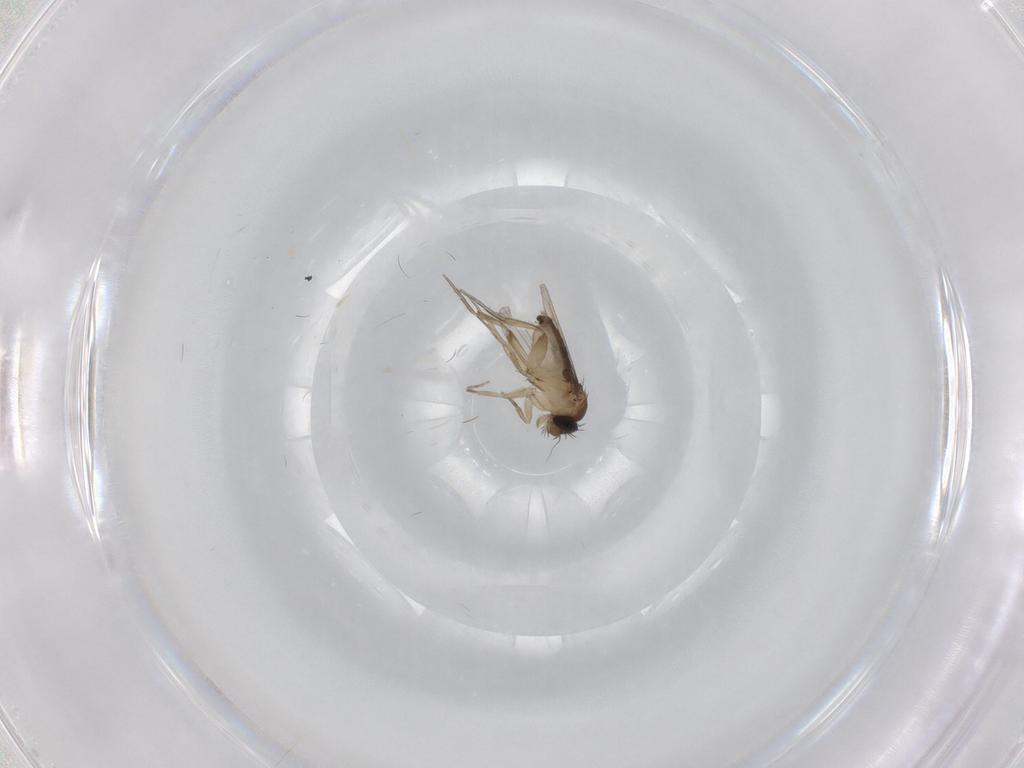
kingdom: Animalia
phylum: Arthropoda
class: Insecta
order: Diptera
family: Phoridae
